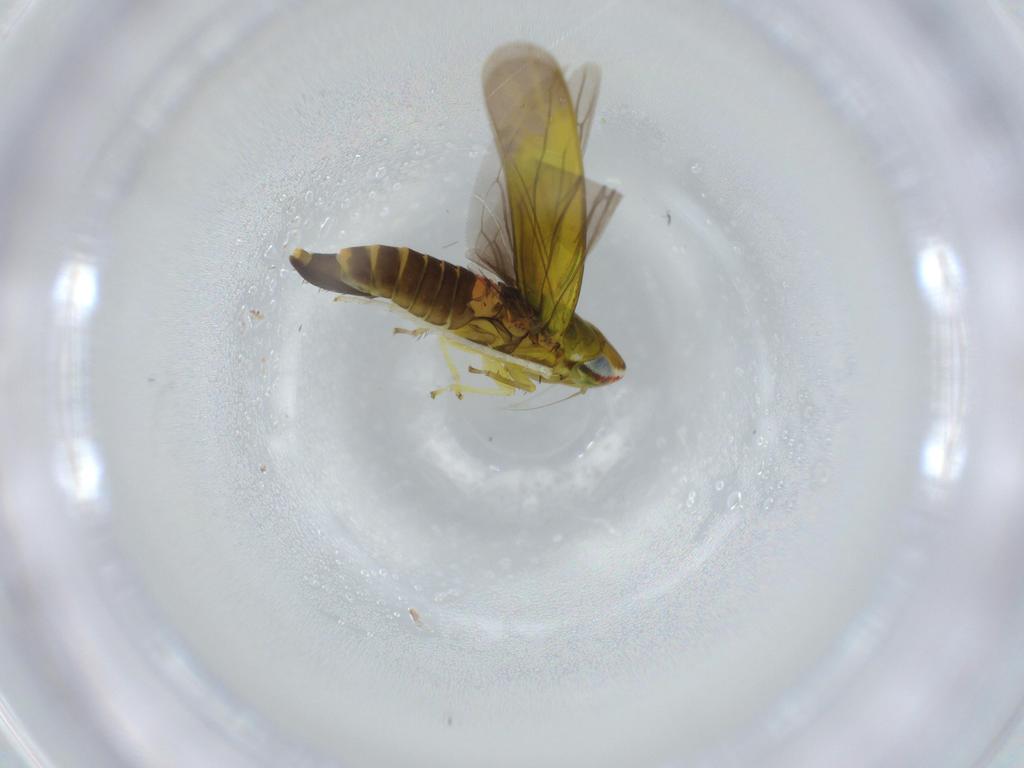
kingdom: Animalia
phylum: Arthropoda
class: Insecta
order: Hemiptera
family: Cicadellidae
